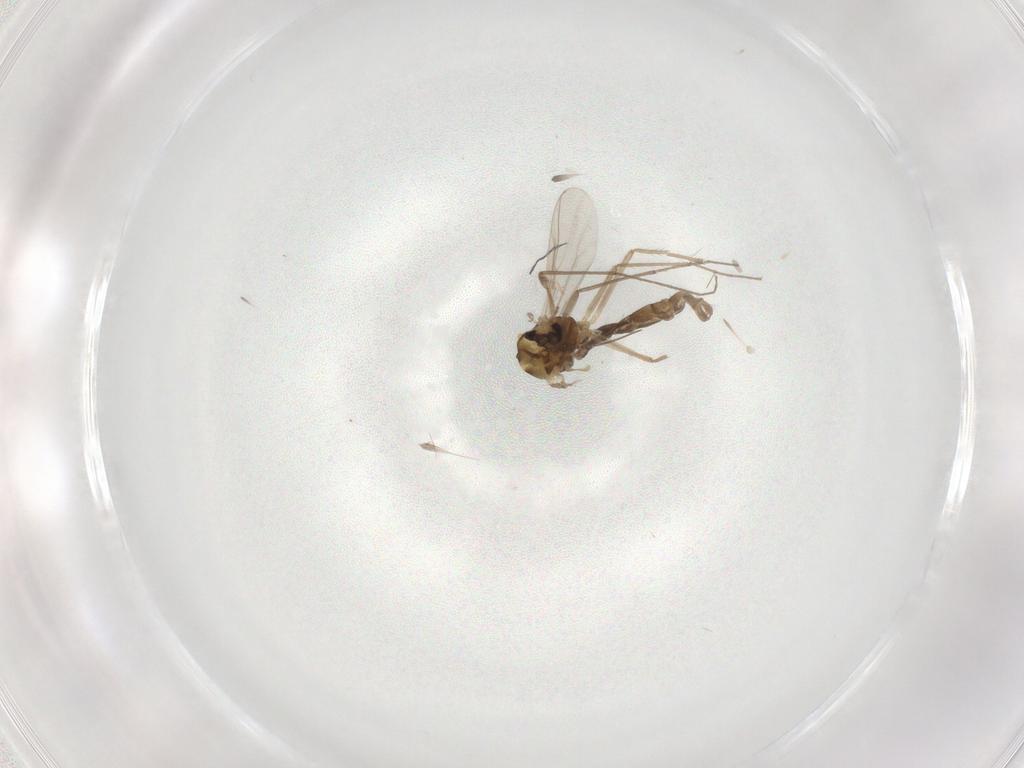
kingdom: Animalia
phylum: Arthropoda
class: Insecta
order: Diptera
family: Chironomidae
